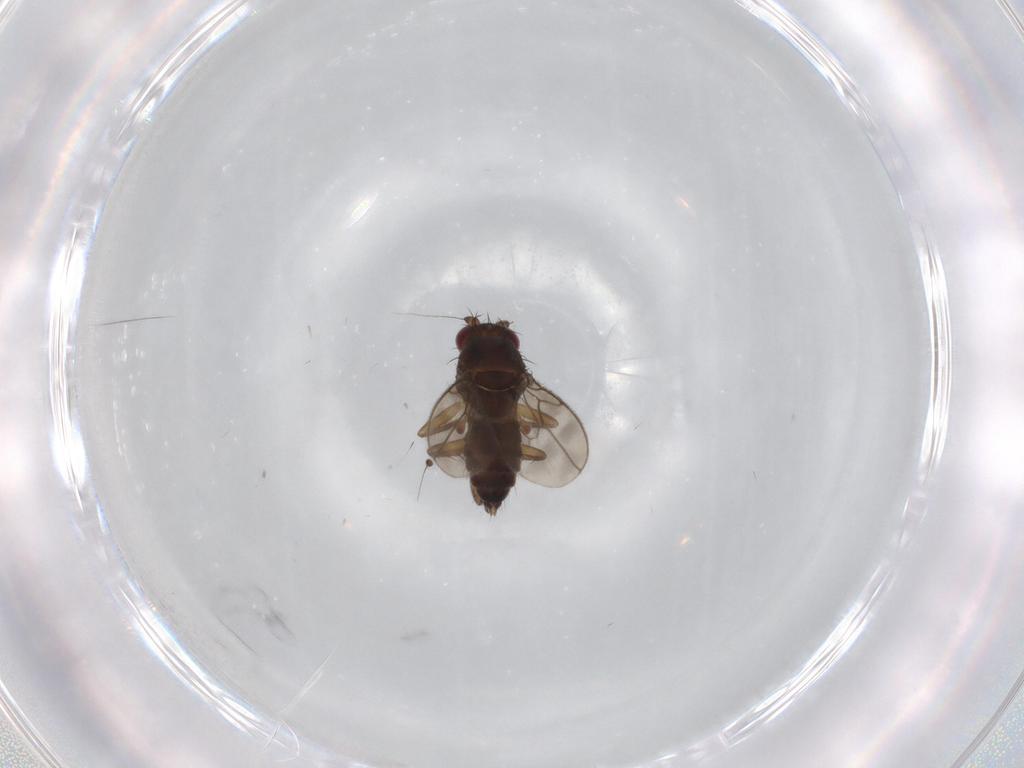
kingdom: Animalia
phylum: Arthropoda
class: Insecta
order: Diptera
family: Sphaeroceridae
